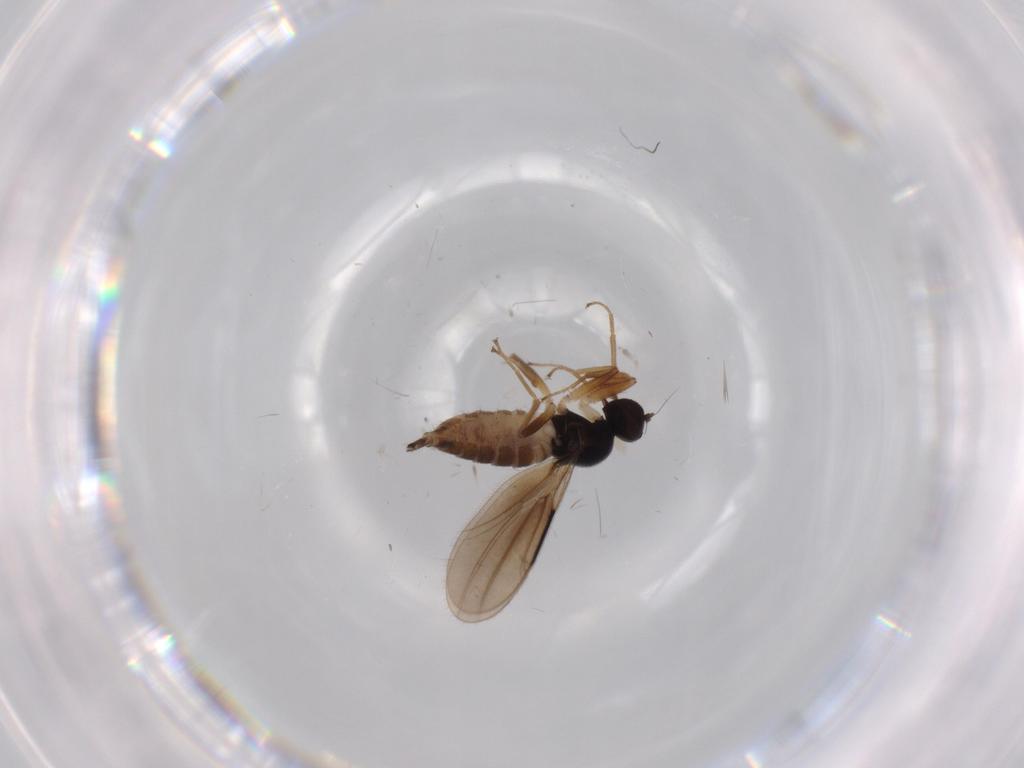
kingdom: Animalia
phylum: Arthropoda
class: Insecta
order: Diptera
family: Hybotidae
